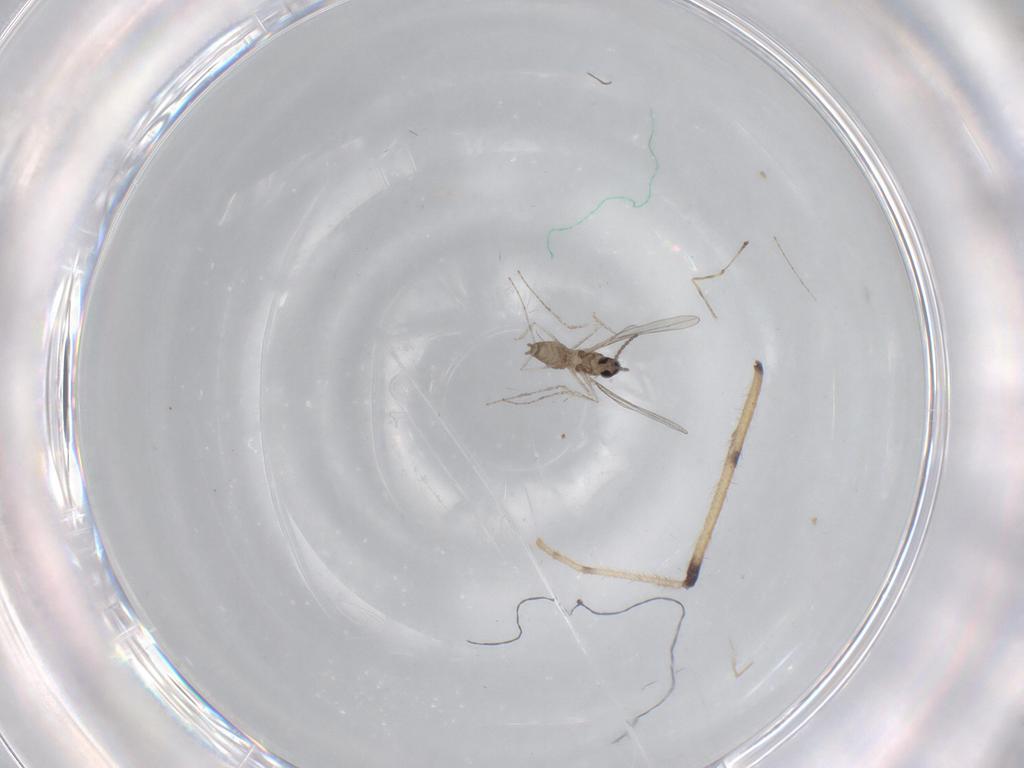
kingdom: Animalia
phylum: Arthropoda
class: Insecta
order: Diptera
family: Cecidomyiidae
